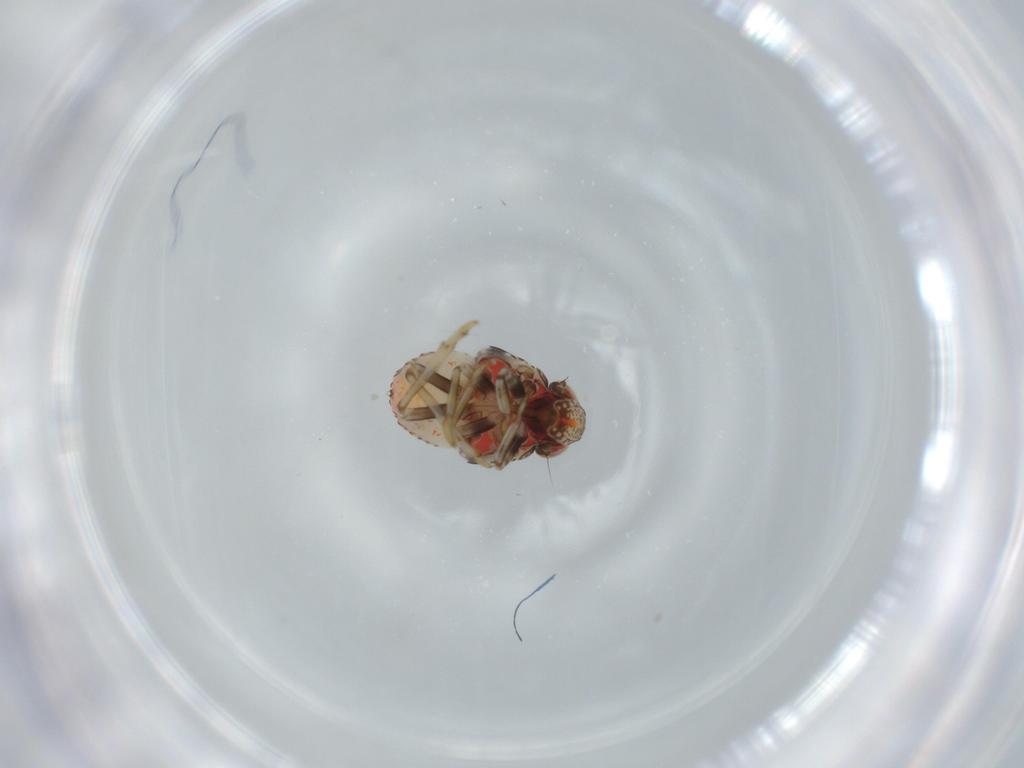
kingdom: Animalia
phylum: Arthropoda
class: Insecta
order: Hemiptera
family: Issidae
